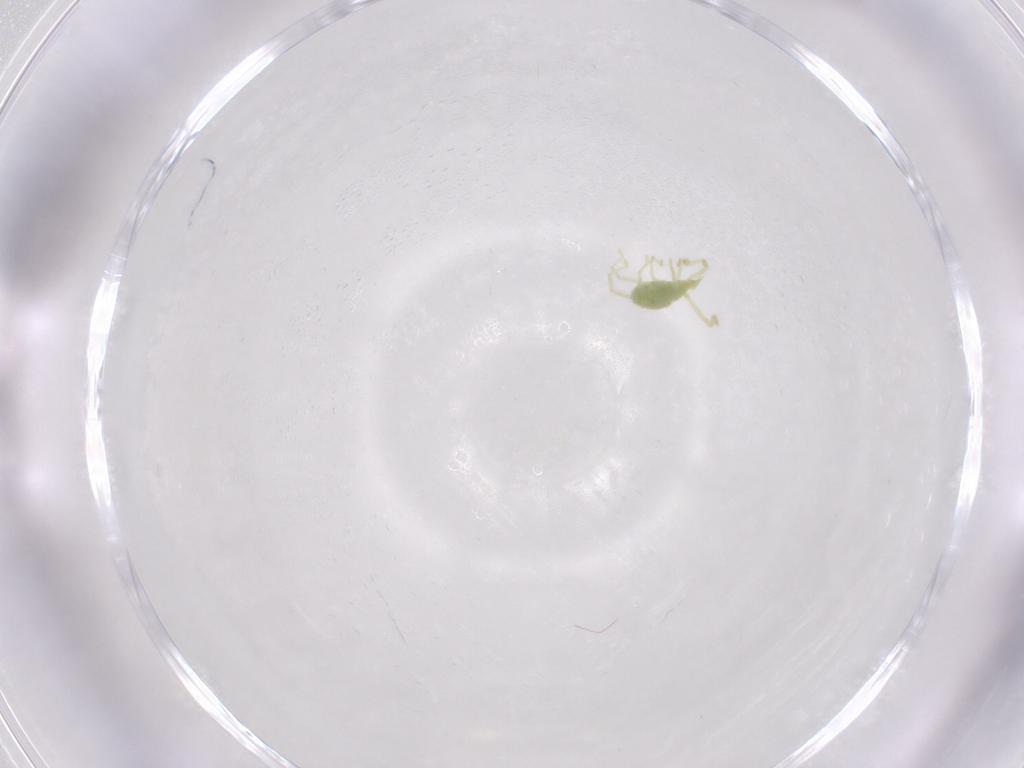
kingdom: Animalia
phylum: Arthropoda
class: Arachnida
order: Trombidiformes
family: Erythraeidae
